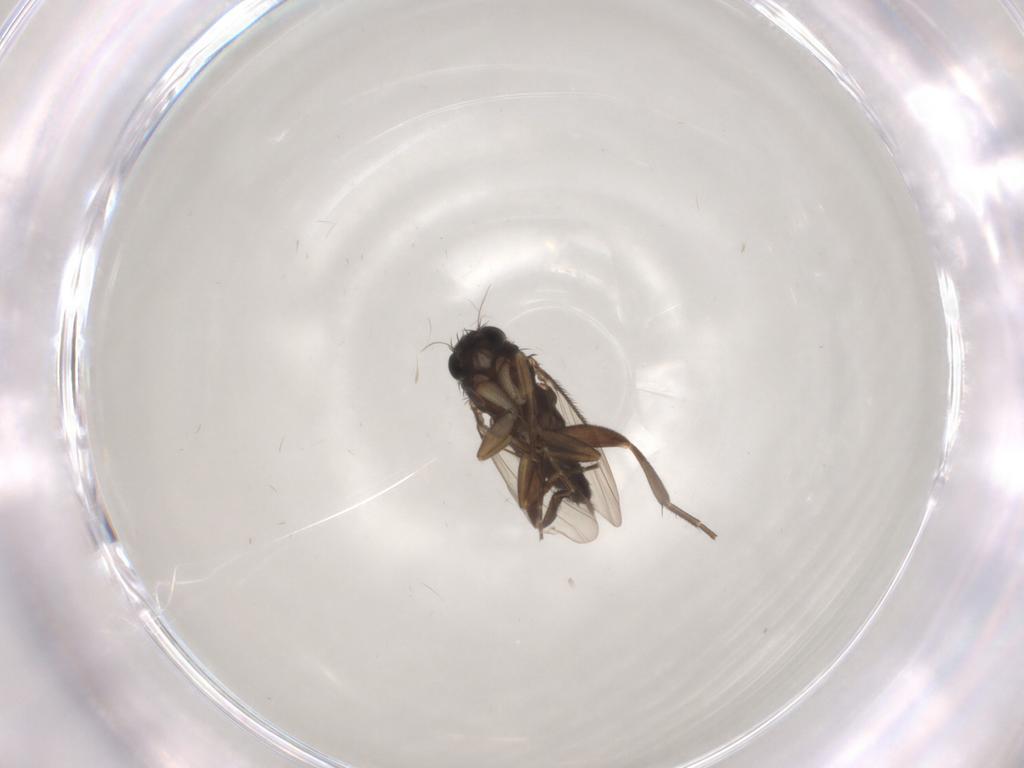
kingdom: Animalia
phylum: Arthropoda
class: Insecta
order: Diptera
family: Phoridae
